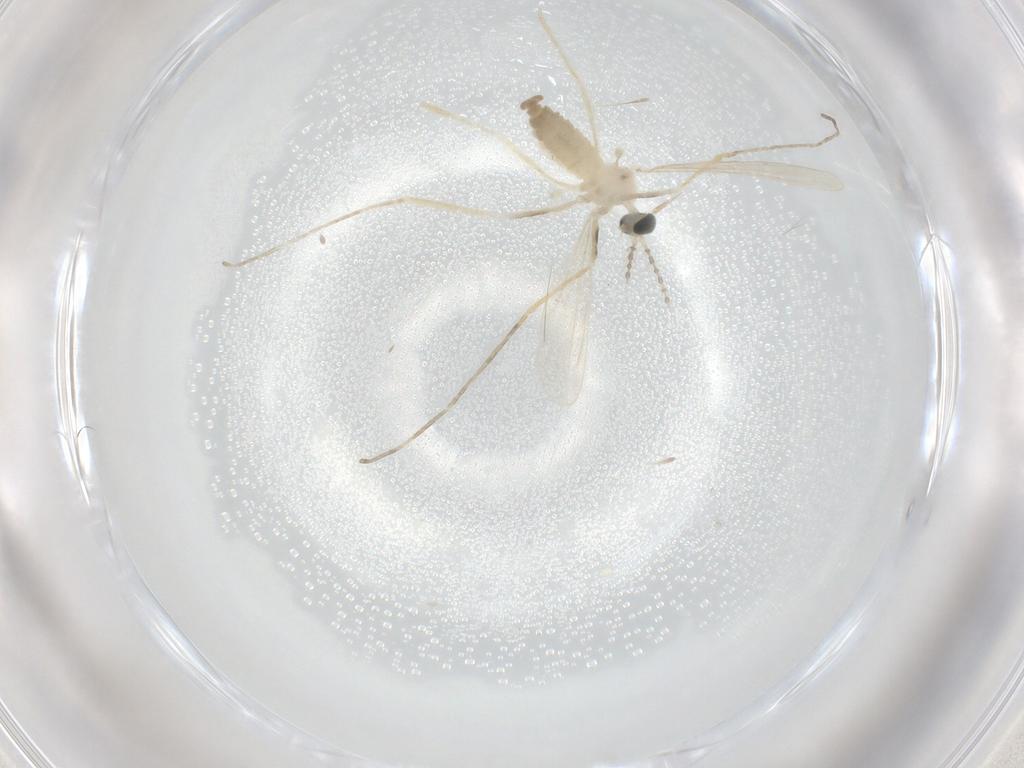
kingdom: Animalia
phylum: Arthropoda
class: Insecta
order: Diptera
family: Cecidomyiidae
